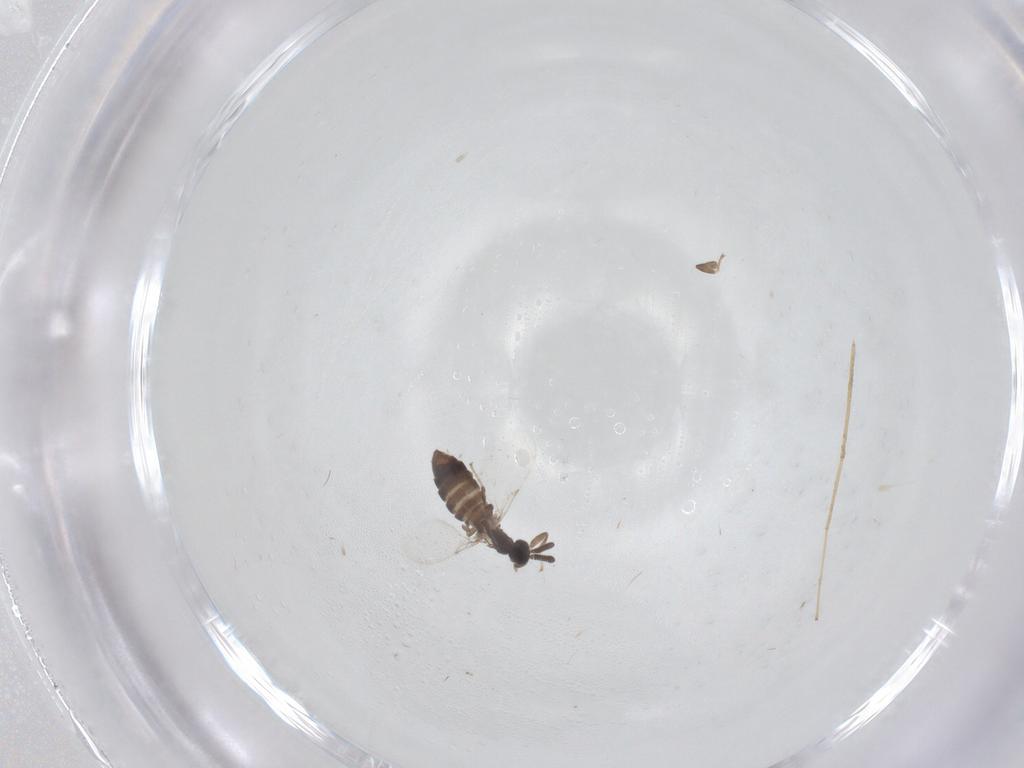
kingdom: Animalia
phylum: Arthropoda
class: Insecta
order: Diptera
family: Scatopsidae
